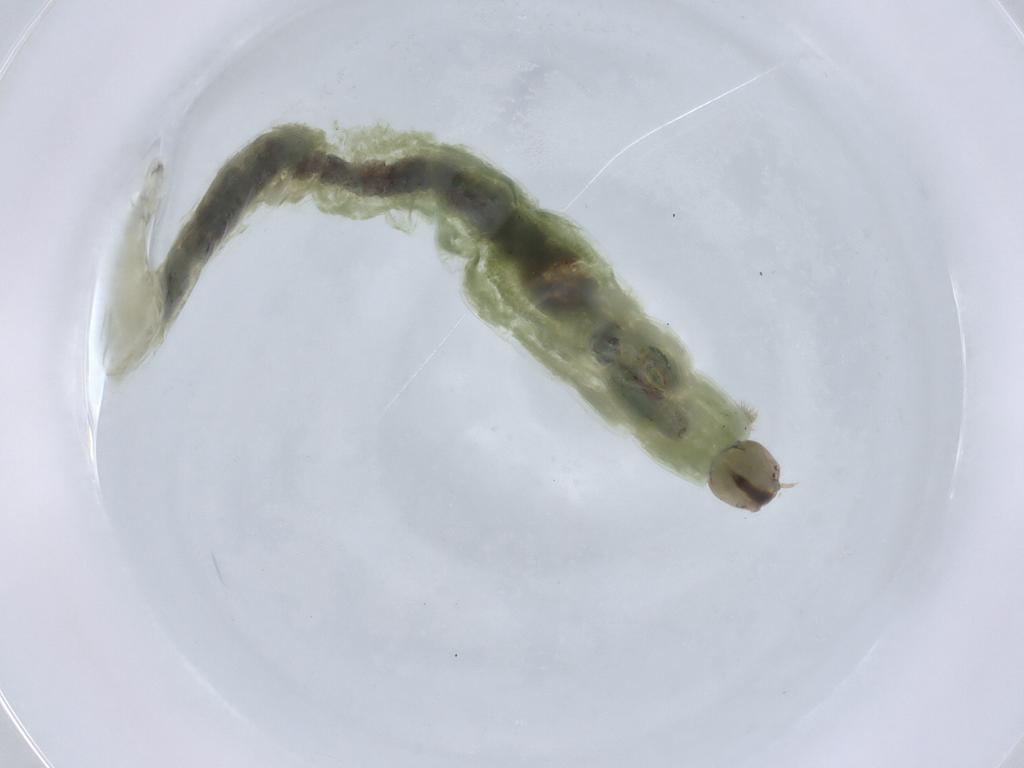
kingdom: Animalia
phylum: Arthropoda
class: Insecta
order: Diptera
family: Chironomidae
